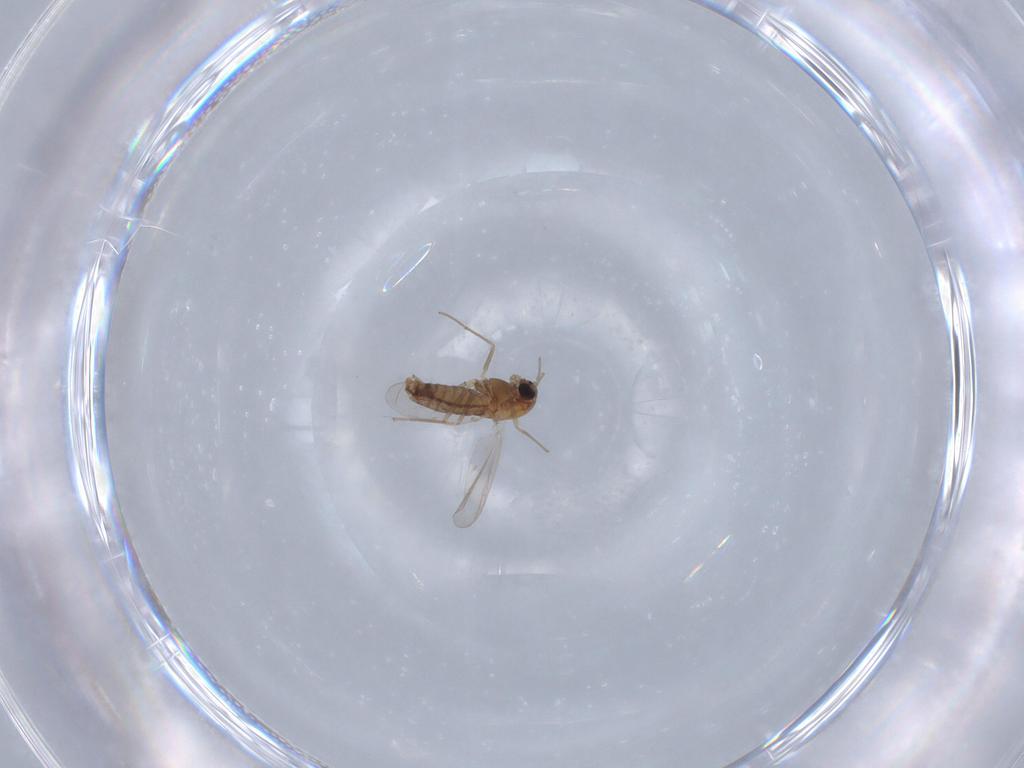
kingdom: Animalia
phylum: Arthropoda
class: Insecta
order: Diptera
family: Chironomidae
